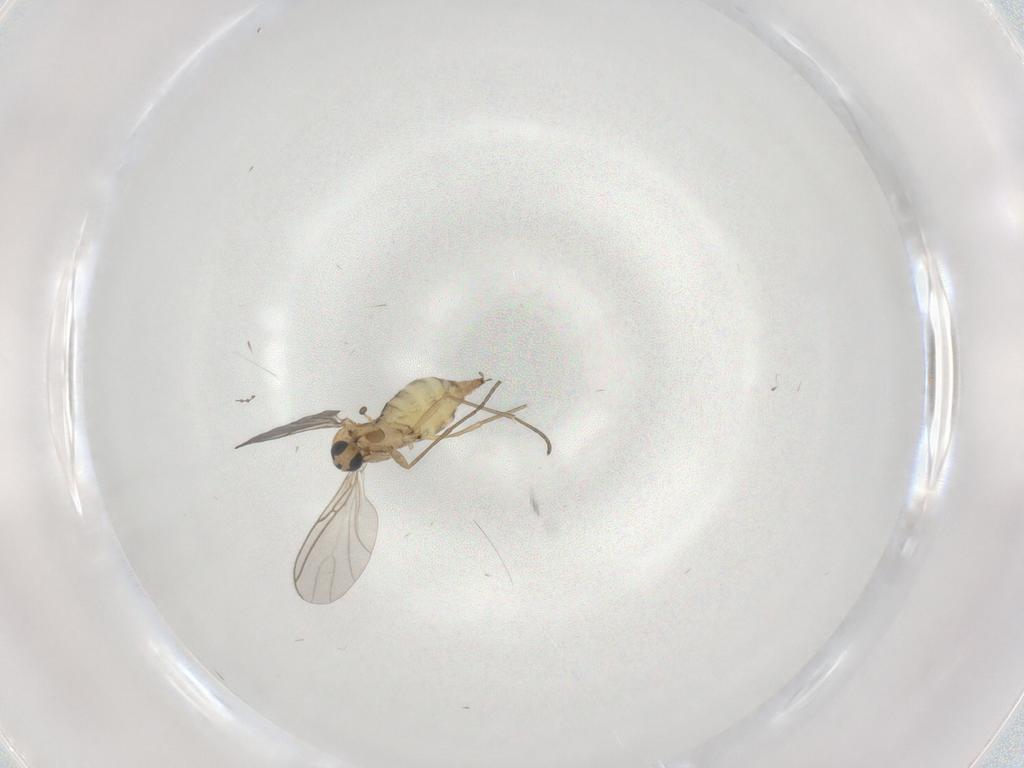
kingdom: Animalia
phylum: Arthropoda
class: Insecta
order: Diptera
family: Sciaridae
